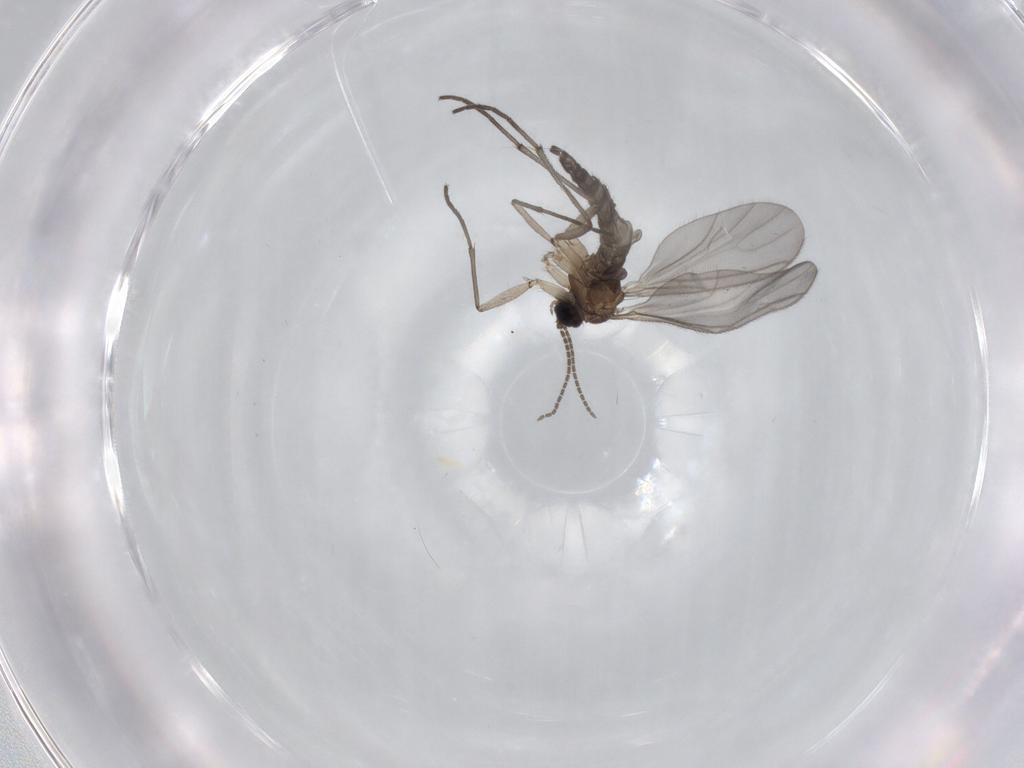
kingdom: Animalia
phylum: Arthropoda
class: Insecta
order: Diptera
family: Sciaridae
